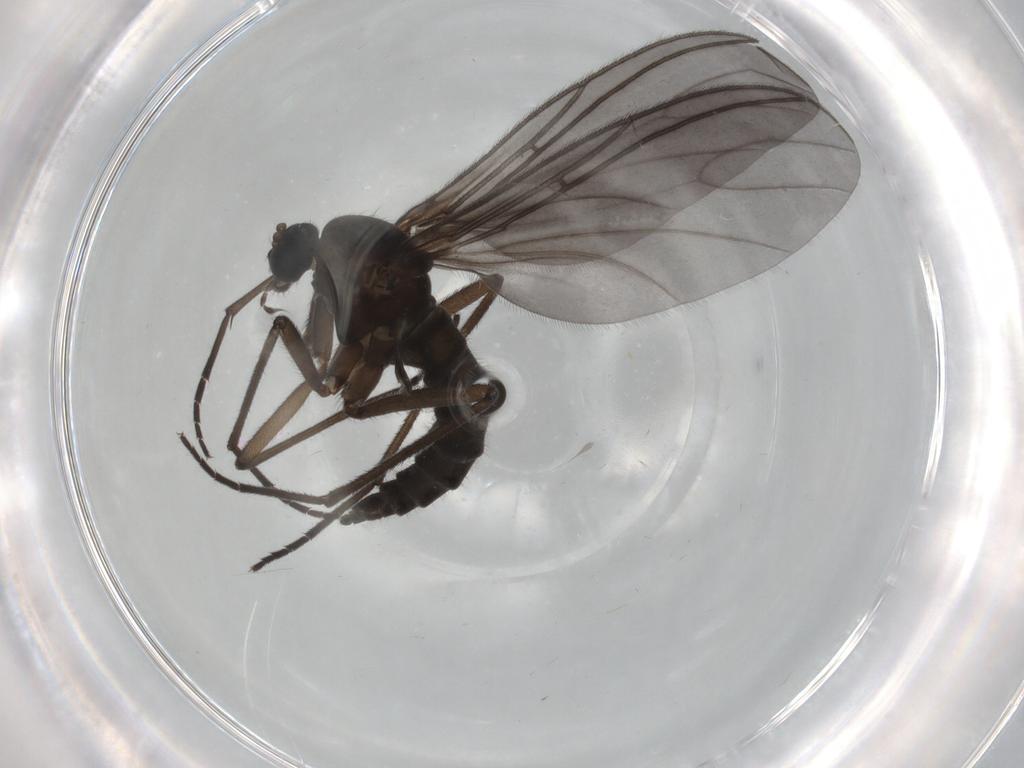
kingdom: Animalia
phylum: Arthropoda
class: Insecta
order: Diptera
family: Sciaridae
